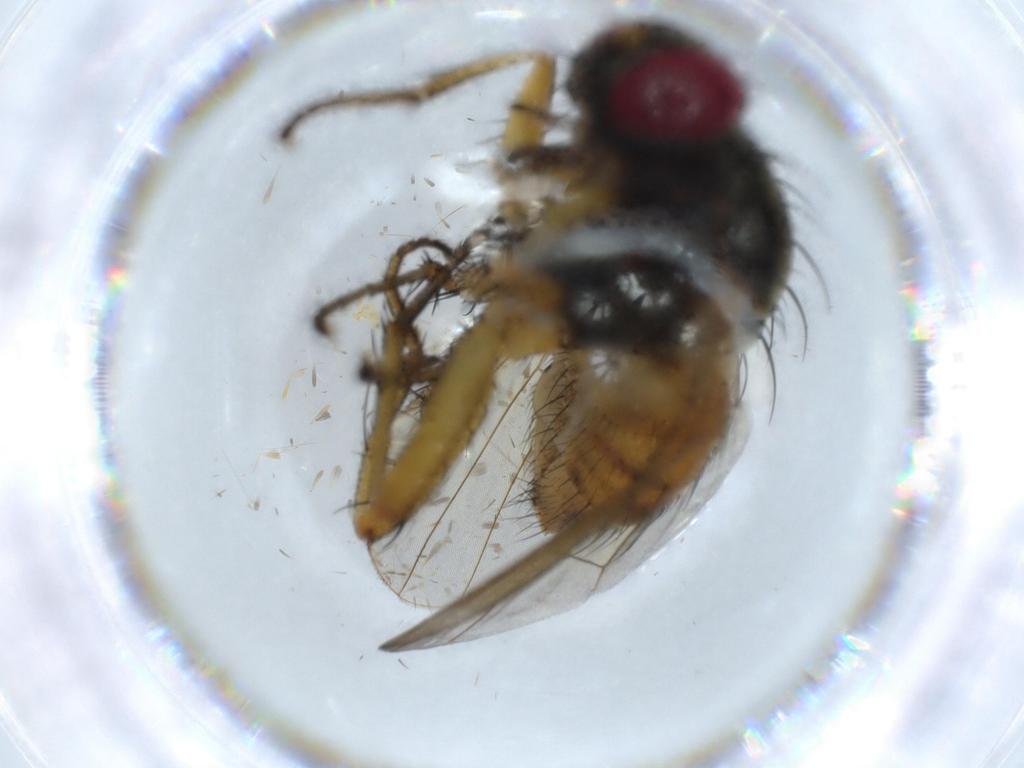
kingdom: Animalia
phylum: Arthropoda
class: Insecta
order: Diptera
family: Muscidae
